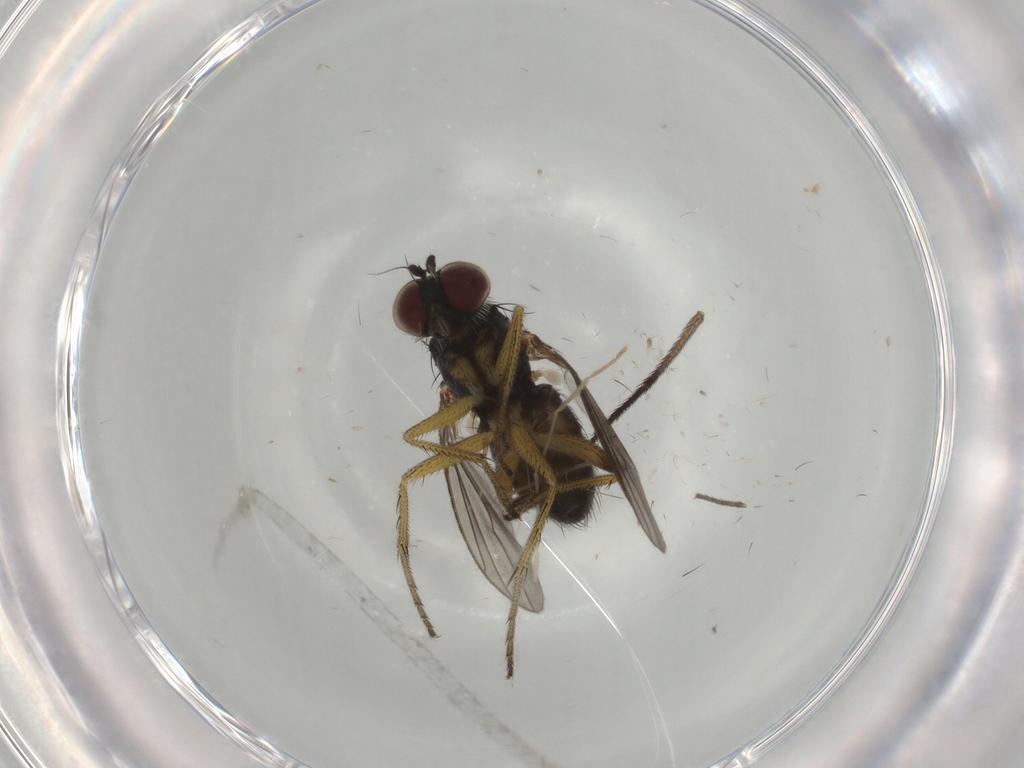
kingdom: Animalia
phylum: Arthropoda
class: Insecta
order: Diptera
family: Dolichopodidae
